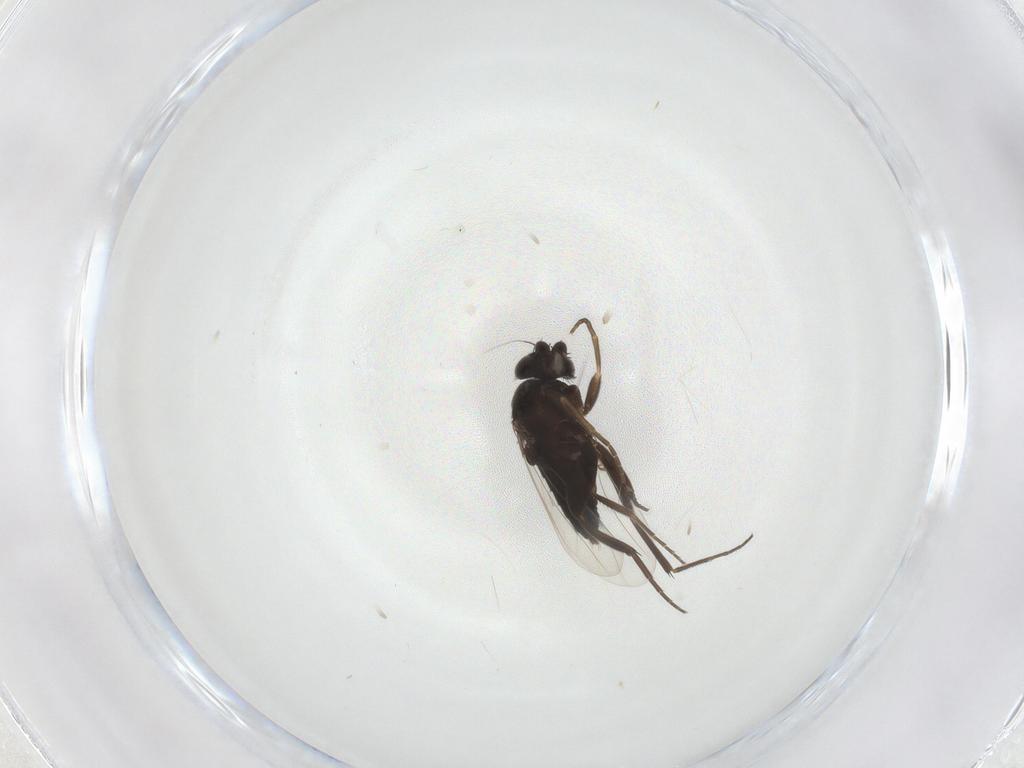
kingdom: Animalia
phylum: Arthropoda
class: Insecta
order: Diptera
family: Phoridae
